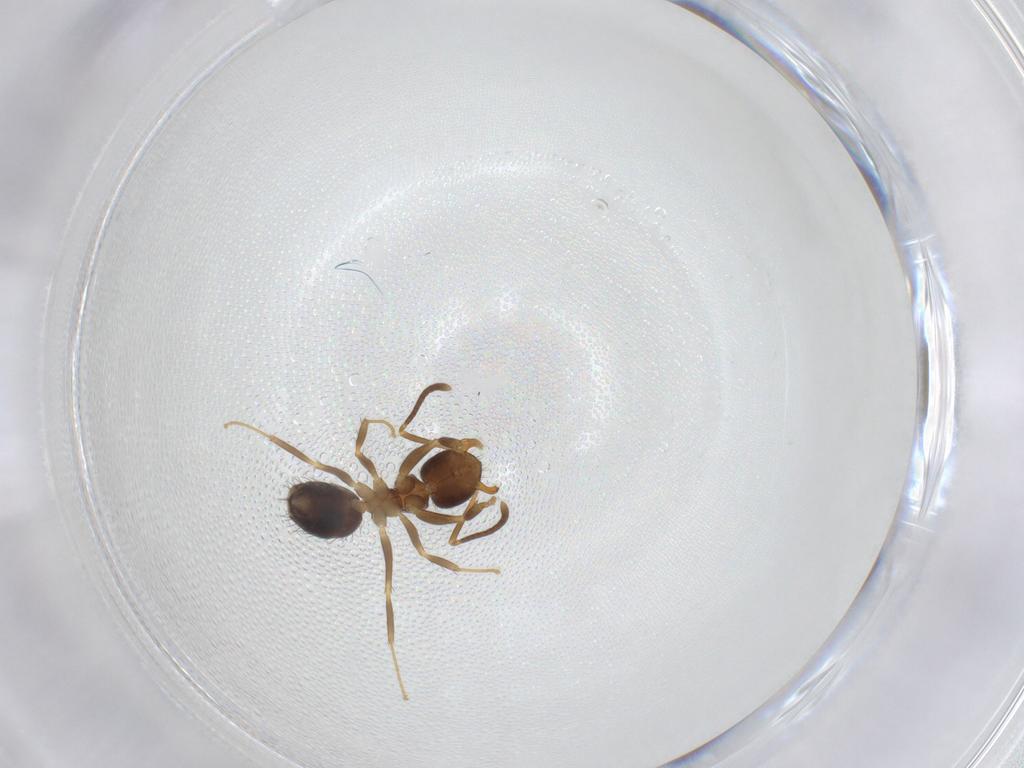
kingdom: Animalia
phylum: Arthropoda
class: Insecta
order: Hymenoptera
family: Formicidae
